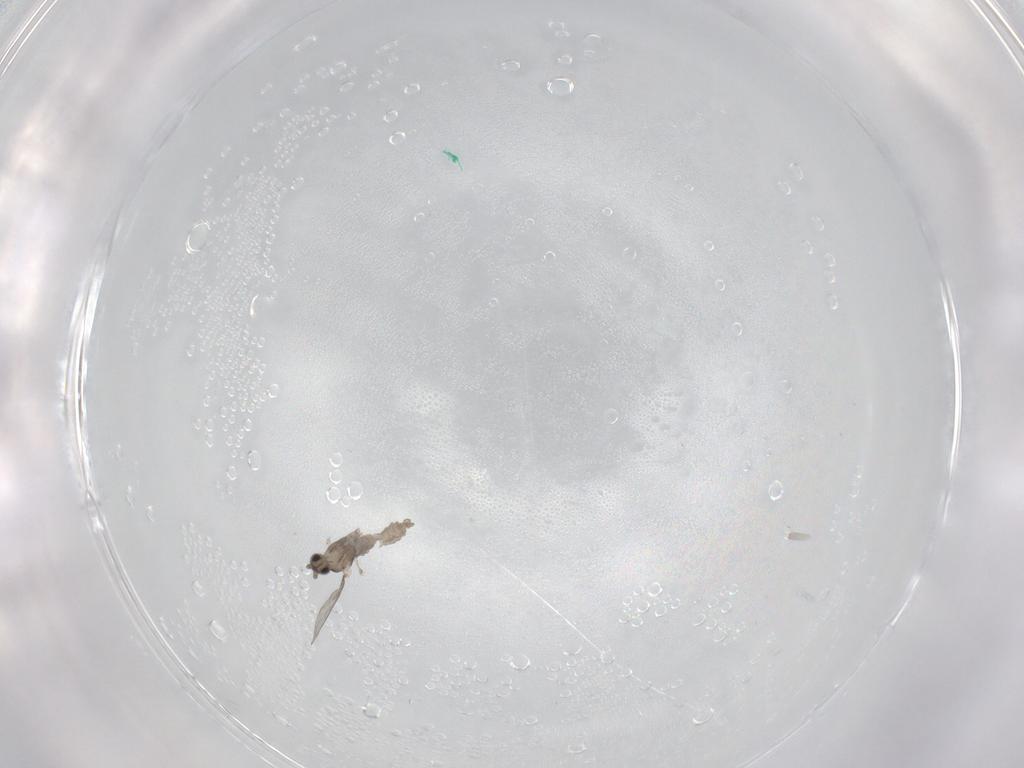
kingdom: Animalia
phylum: Arthropoda
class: Insecta
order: Diptera
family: Cecidomyiidae
